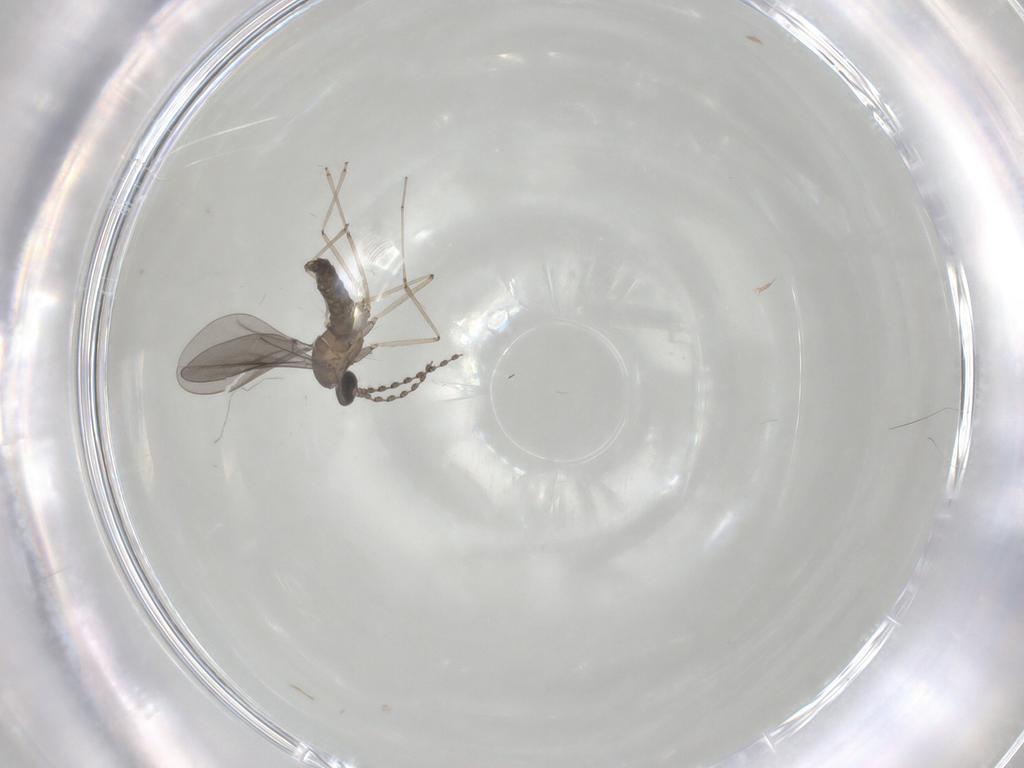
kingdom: Animalia
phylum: Arthropoda
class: Insecta
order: Diptera
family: Cecidomyiidae
